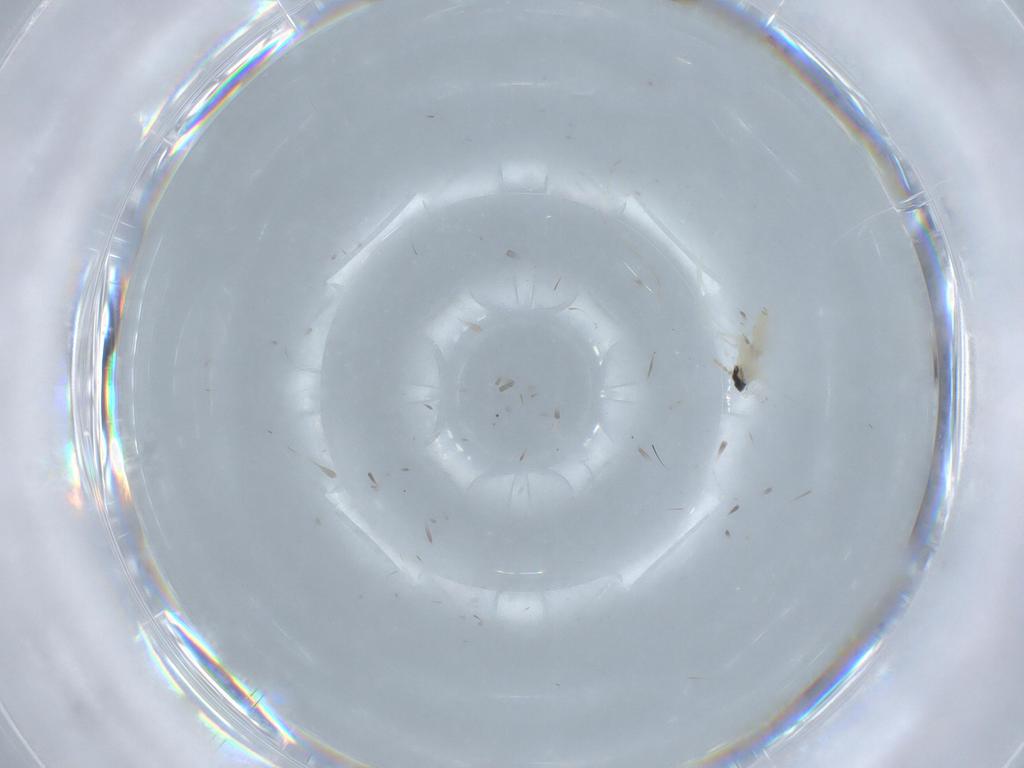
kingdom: Animalia
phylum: Arthropoda
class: Insecta
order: Diptera
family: Cecidomyiidae
